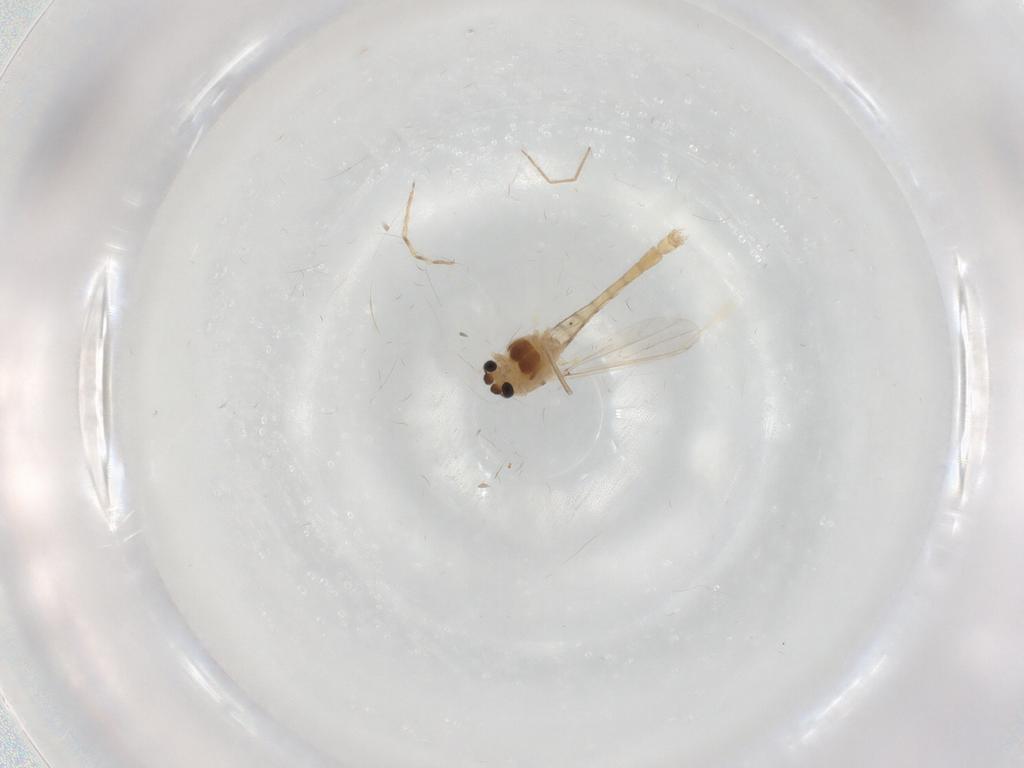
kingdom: Animalia
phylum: Arthropoda
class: Insecta
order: Diptera
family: Chironomidae
